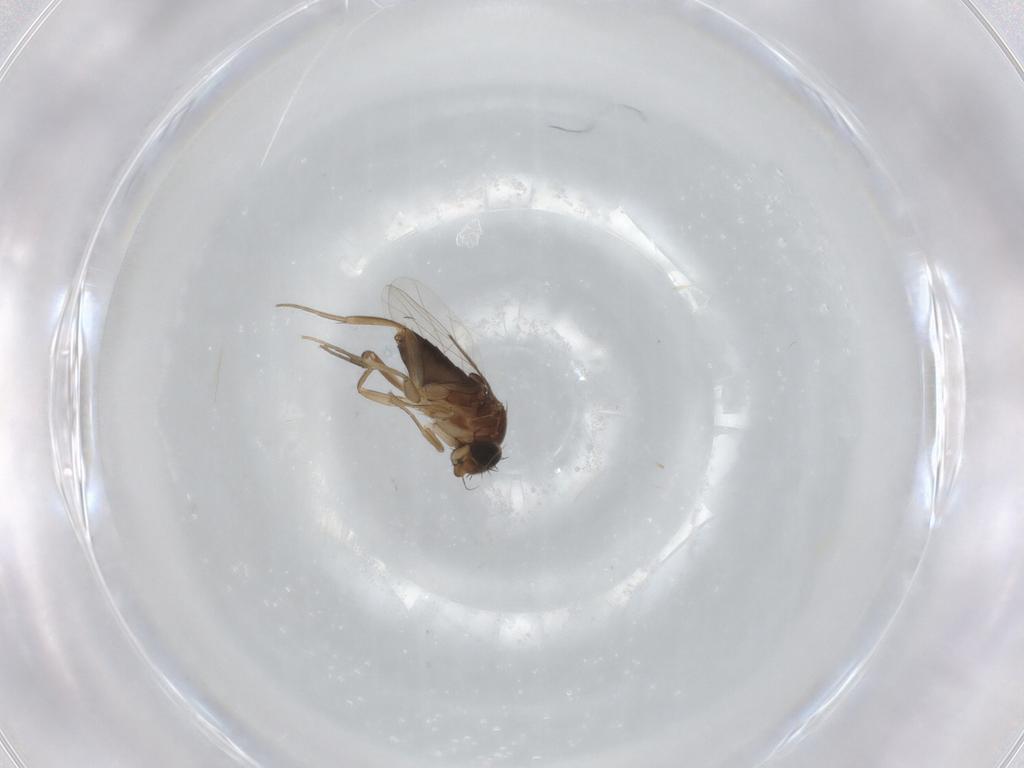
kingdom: Animalia
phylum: Arthropoda
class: Insecta
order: Diptera
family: Phoridae
